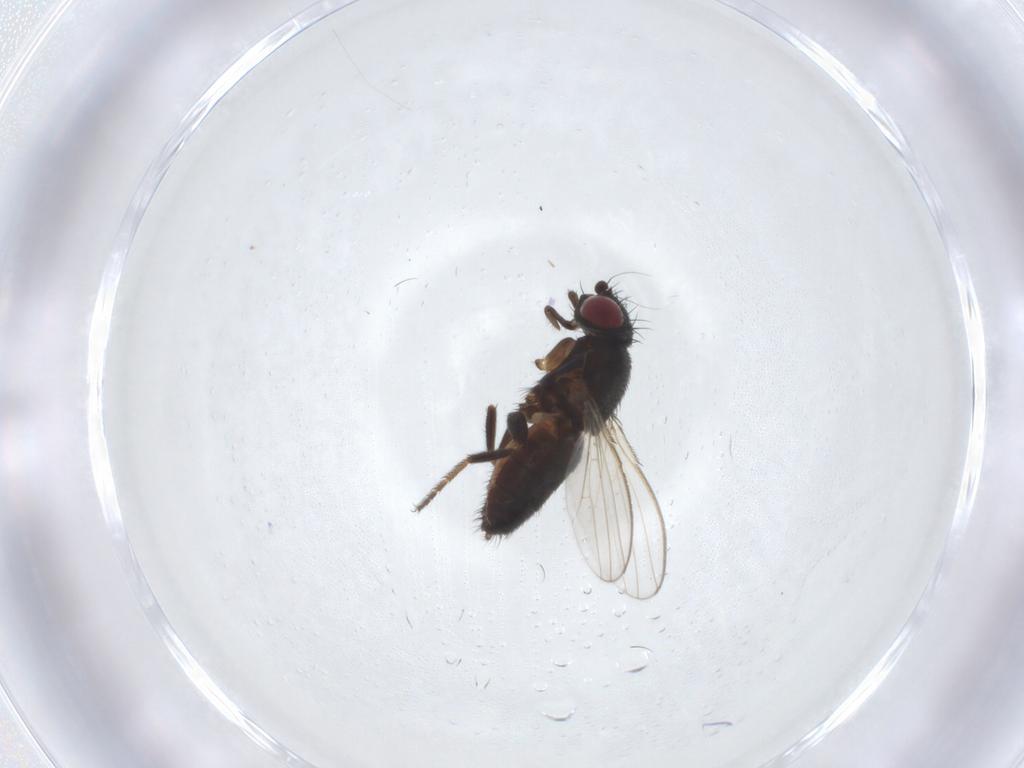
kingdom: Animalia
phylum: Arthropoda
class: Insecta
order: Diptera
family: Milichiidae
